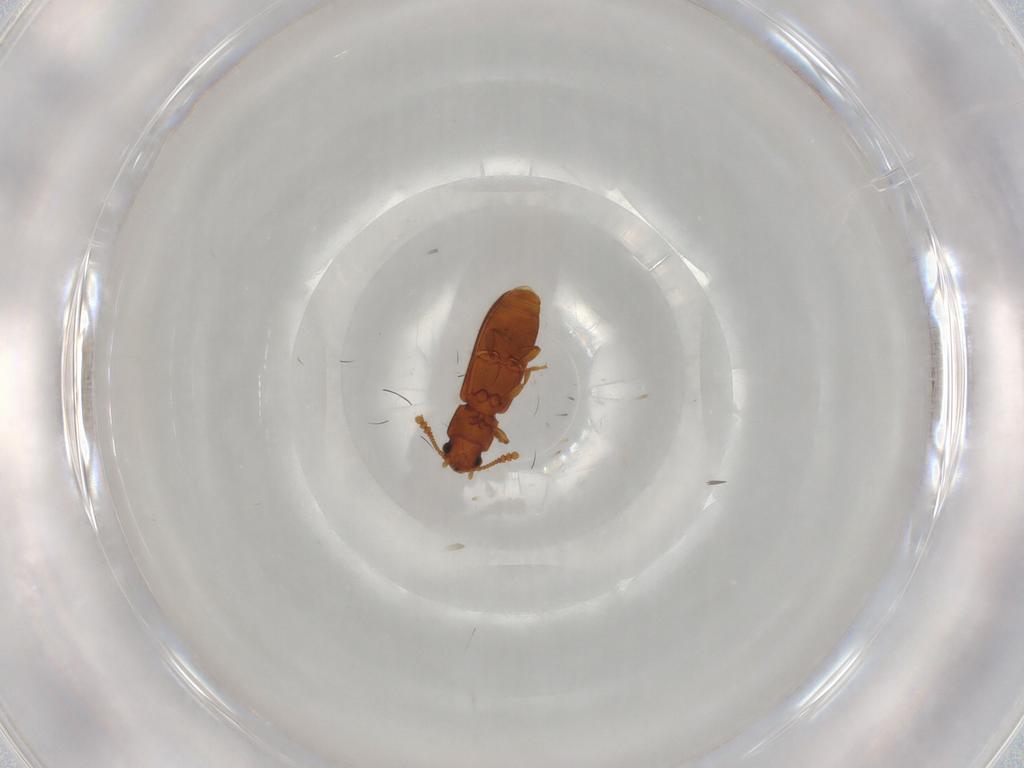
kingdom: Animalia
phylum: Arthropoda
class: Insecta
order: Coleoptera
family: Tenebrionidae
